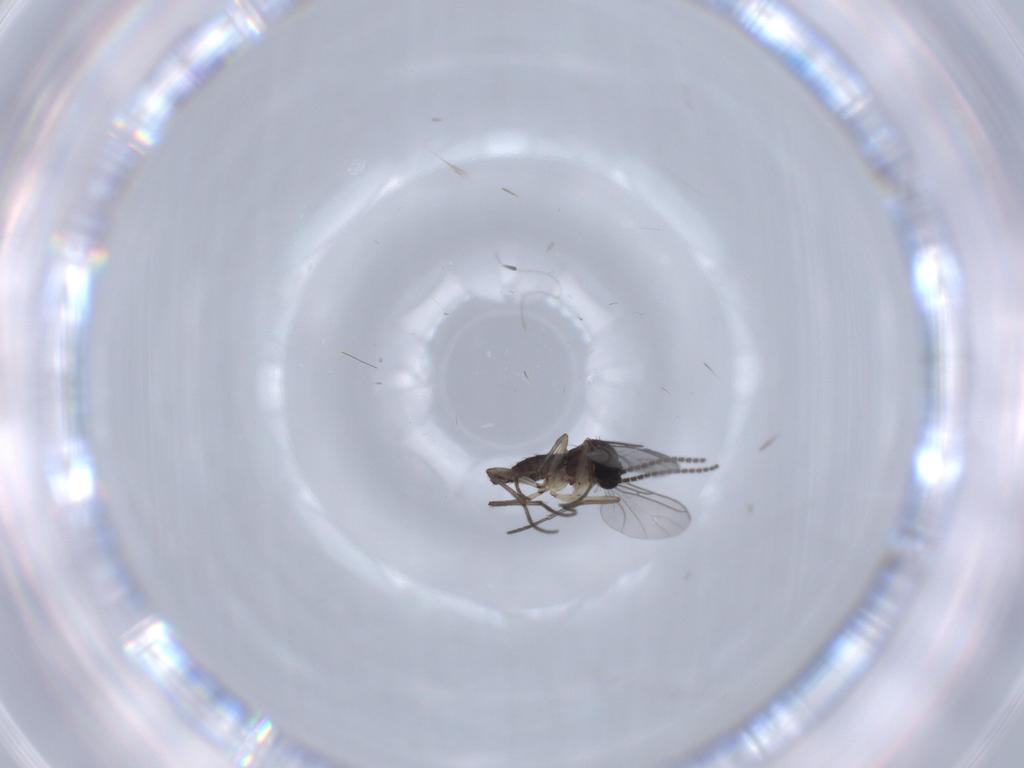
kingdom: Animalia
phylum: Arthropoda
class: Insecta
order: Diptera
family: Sciaridae
